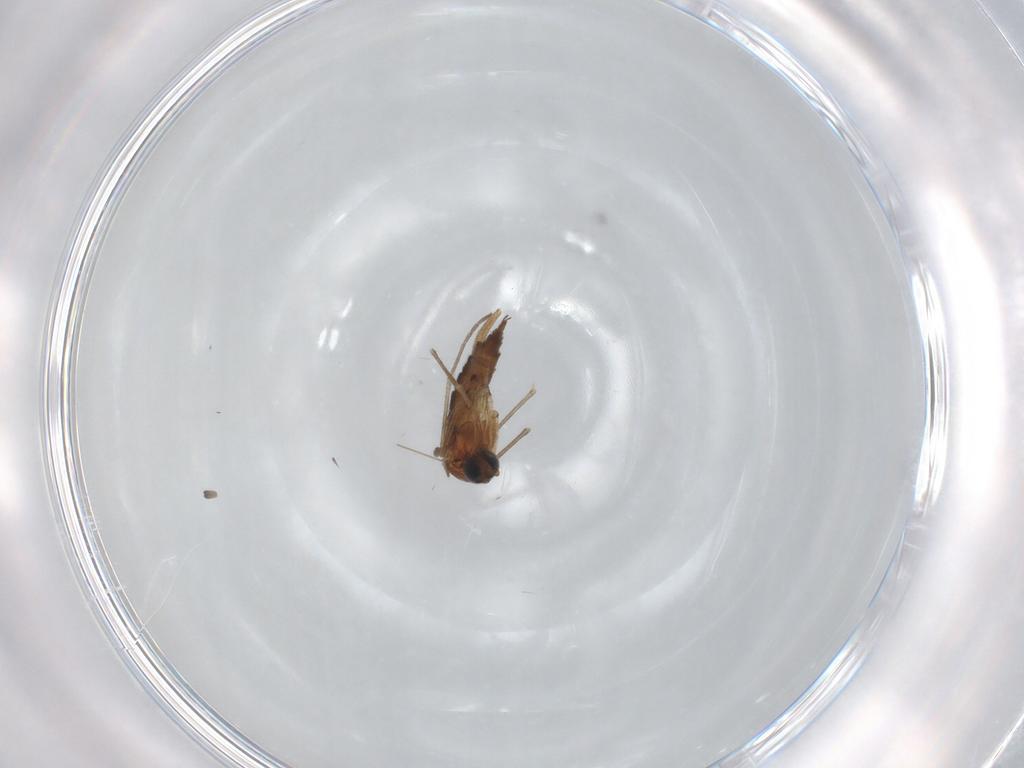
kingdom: Animalia
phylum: Arthropoda
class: Insecta
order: Diptera
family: Sciaridae
